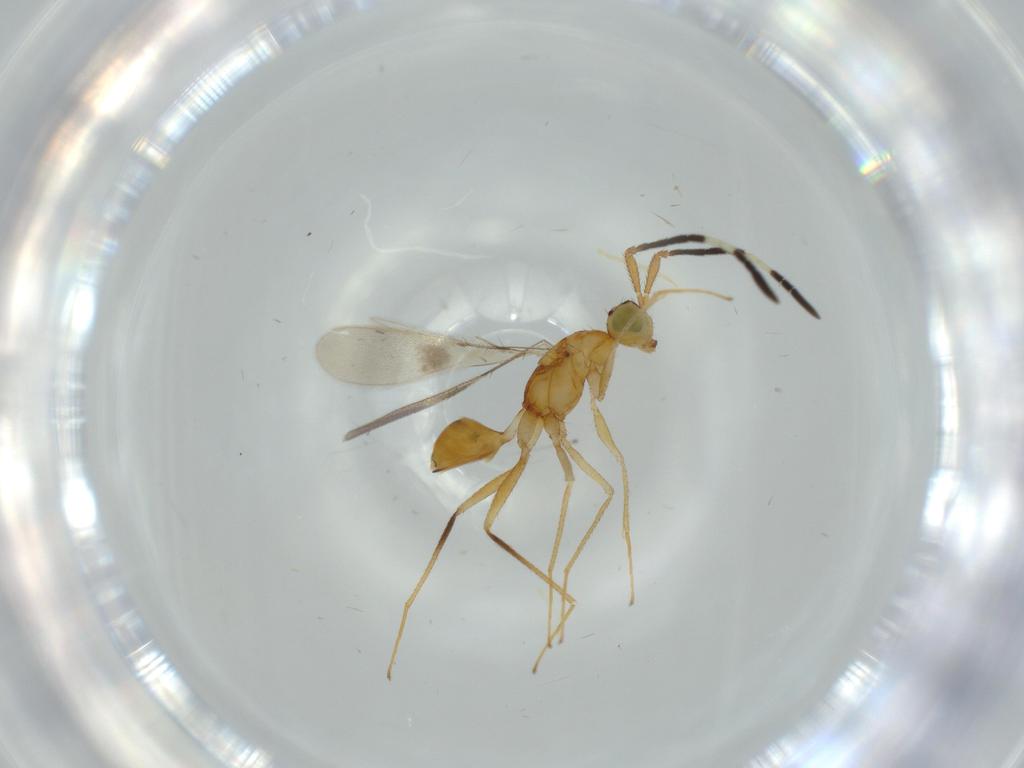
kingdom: Animalia
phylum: Arthropoda
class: Insecta
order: Hymenoptera
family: Mymaridae
